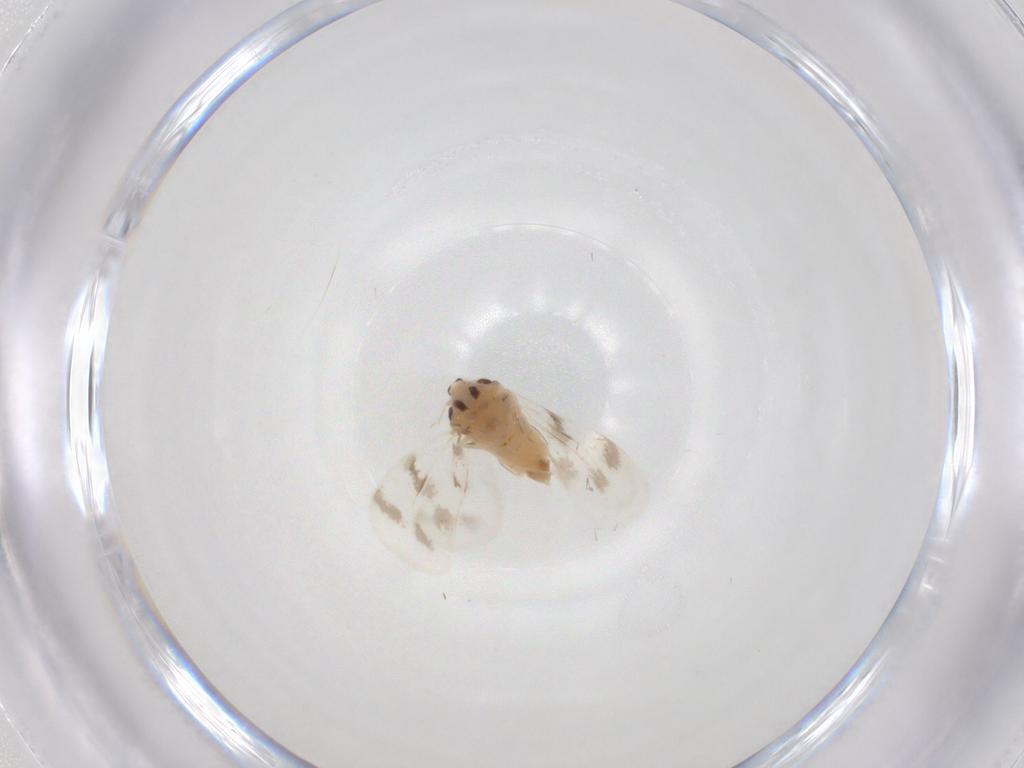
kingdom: Animalia
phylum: Arthropoda
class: Insecta
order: Hemiptera
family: Aleyrodidae
